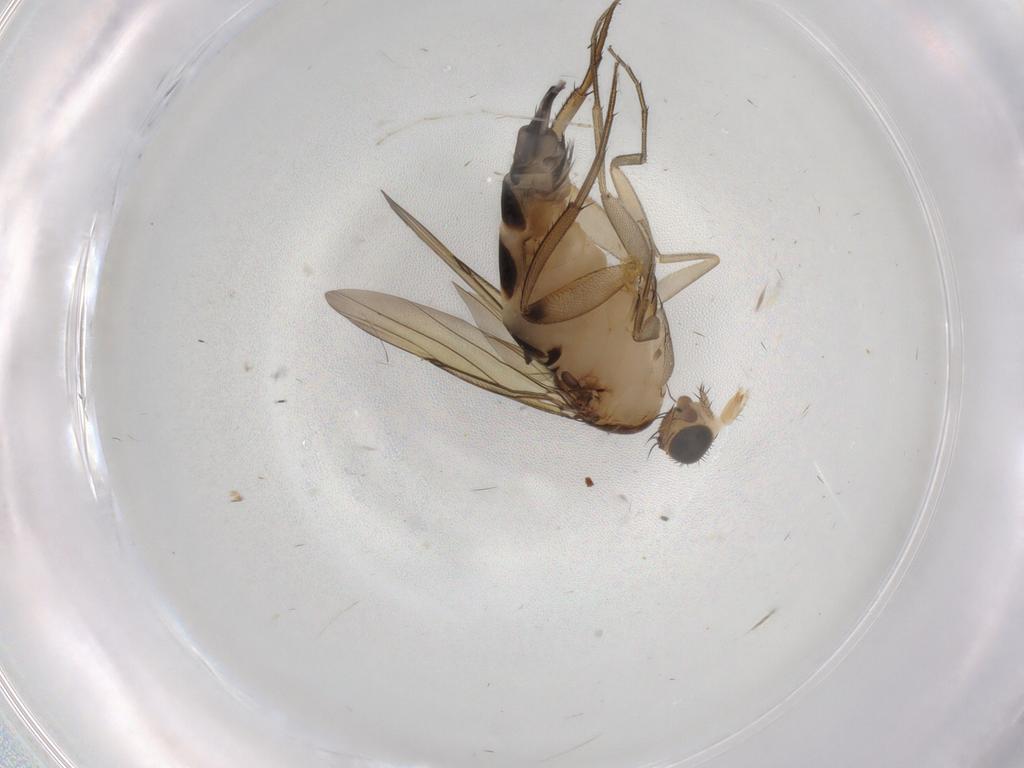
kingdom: Animalia
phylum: Arthropoda
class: Insecta
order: Diptera
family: Sphaeroceridae
